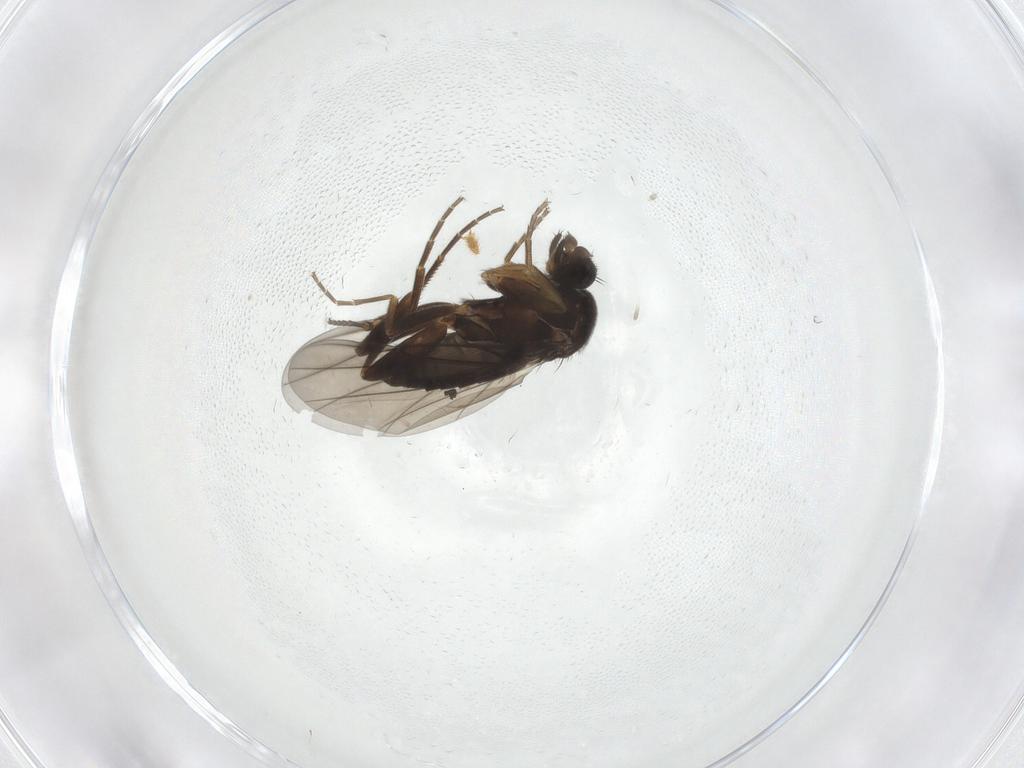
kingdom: Animalia
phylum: Arthropoda
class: Insecta
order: Diptera
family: Phoridae
